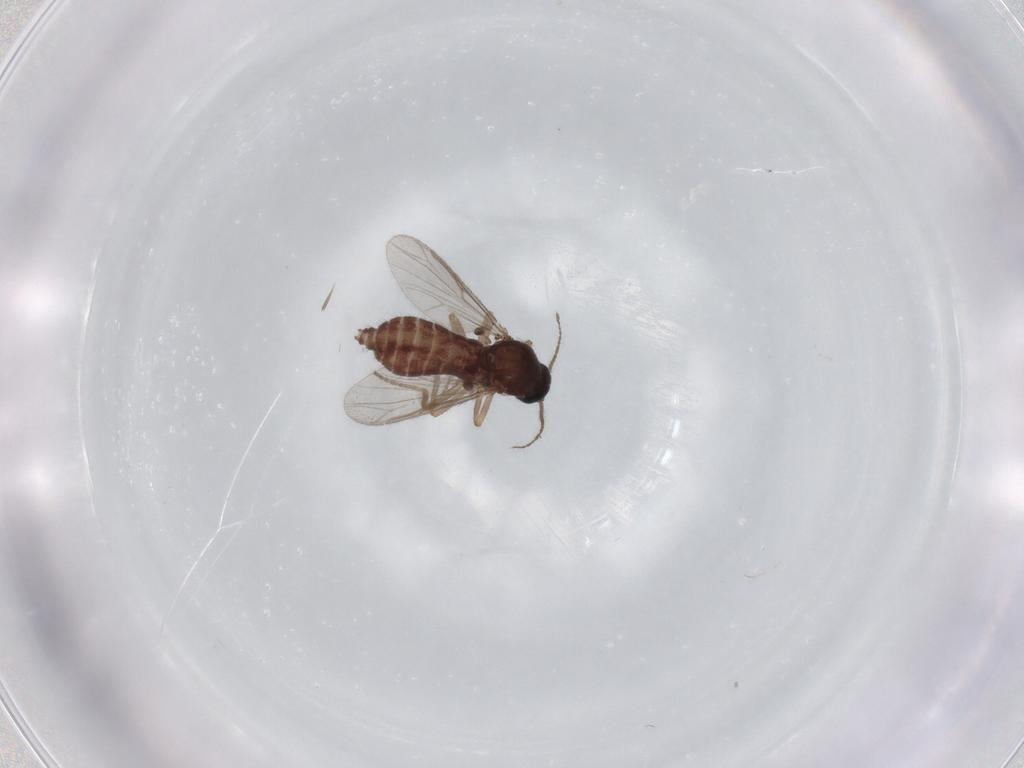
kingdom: Animalia
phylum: Arthropoda
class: Insecta
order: Diptera
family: Ceratopogonidae
